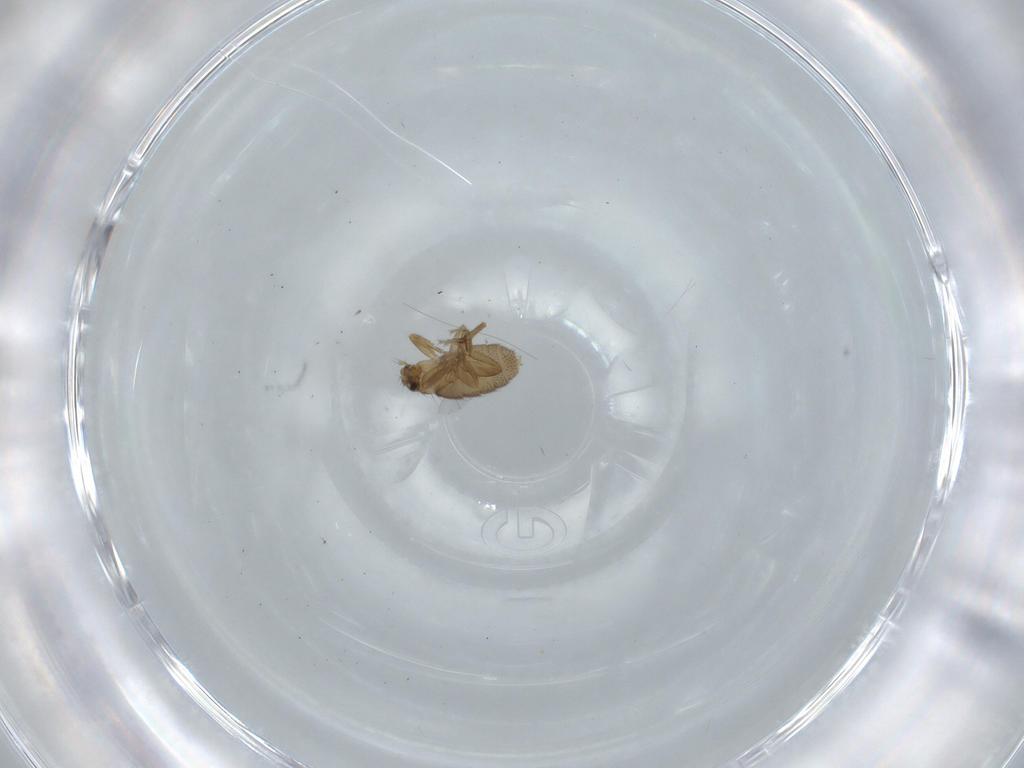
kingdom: Animalia
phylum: Arthropoda
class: Insecta
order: Diptera
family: Phoridae
